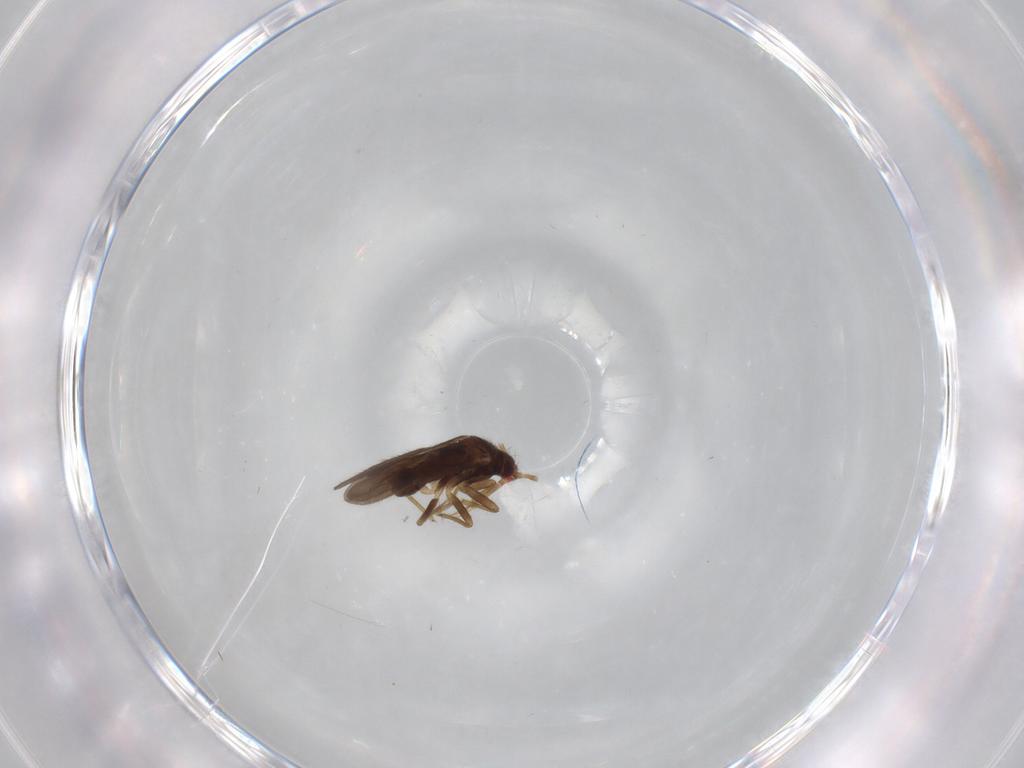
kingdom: Animalia
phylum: Arthropoda
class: Insecta
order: Hemiptera
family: Ceratocombidae
